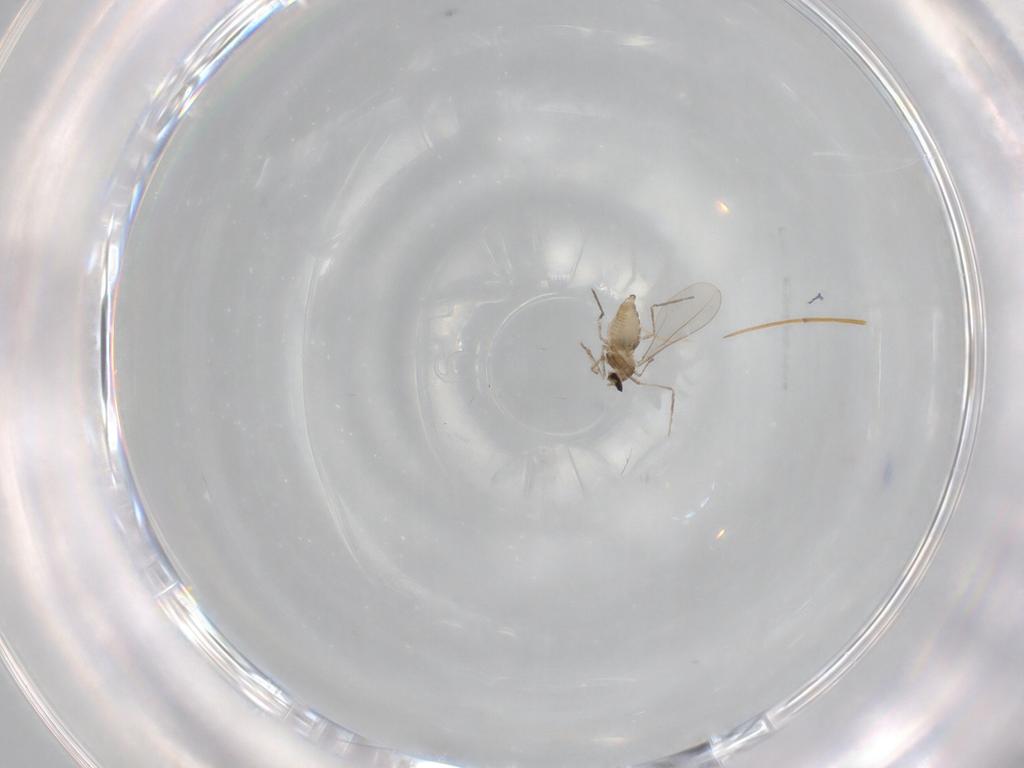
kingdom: Animalia
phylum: Arthropoda
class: Insecta
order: Diptera
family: Cecidomyiidae
